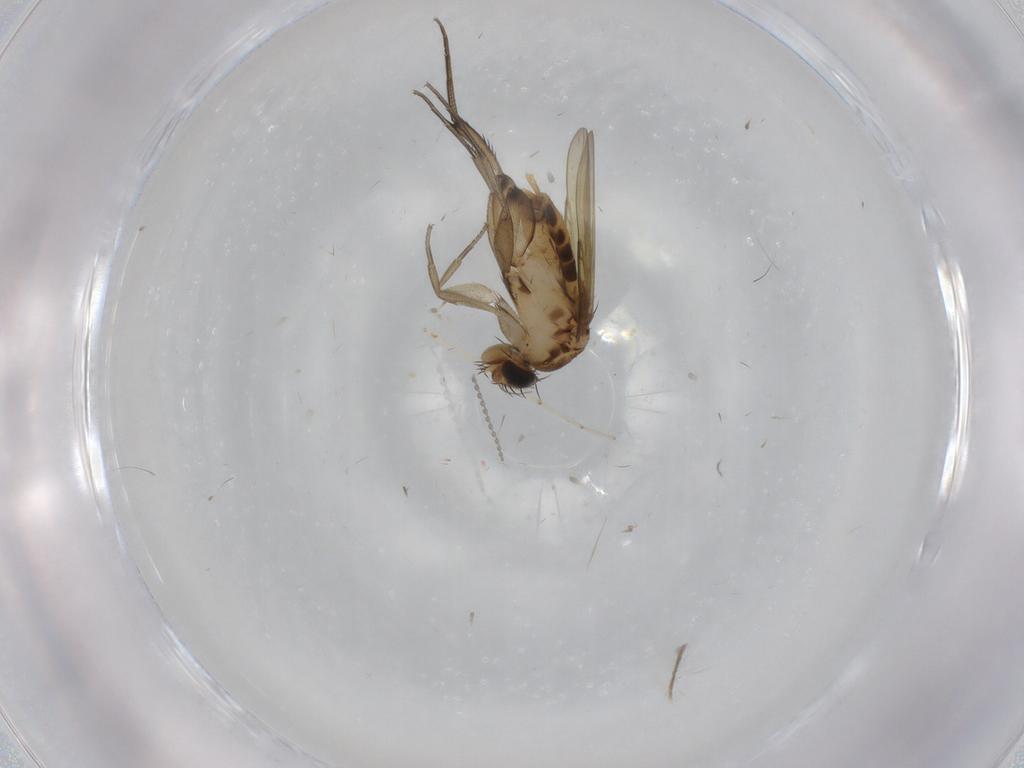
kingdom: Animalia
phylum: Arthropoda
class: Insecta
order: Diptera
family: Phoridae
